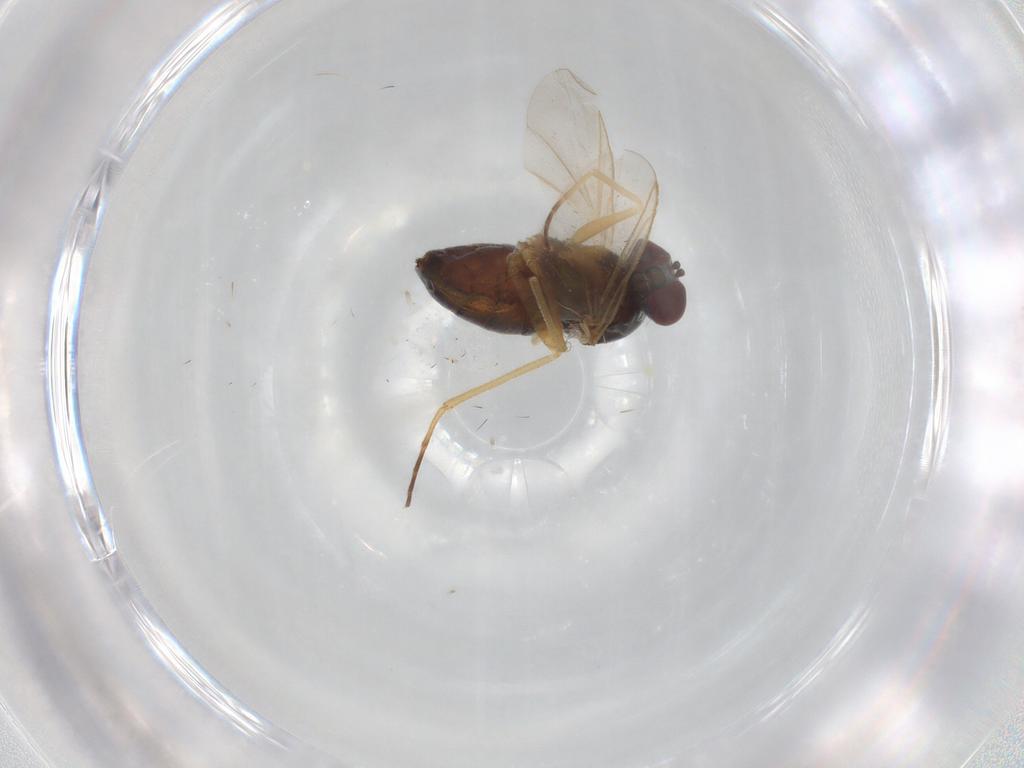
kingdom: Animalia
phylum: Arthropoda
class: Insecta
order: Diptera
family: Dolichopodidae
